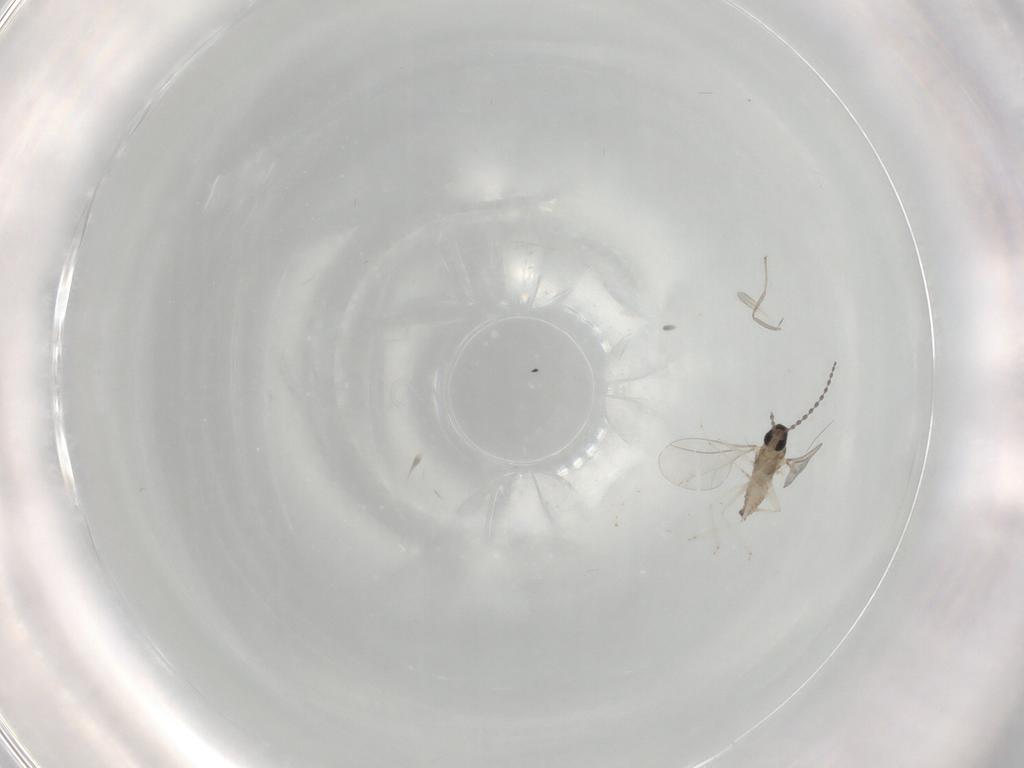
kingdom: Animalia
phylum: Arthropoda
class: Insecta
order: Diptera
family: Cecidomyiidae
